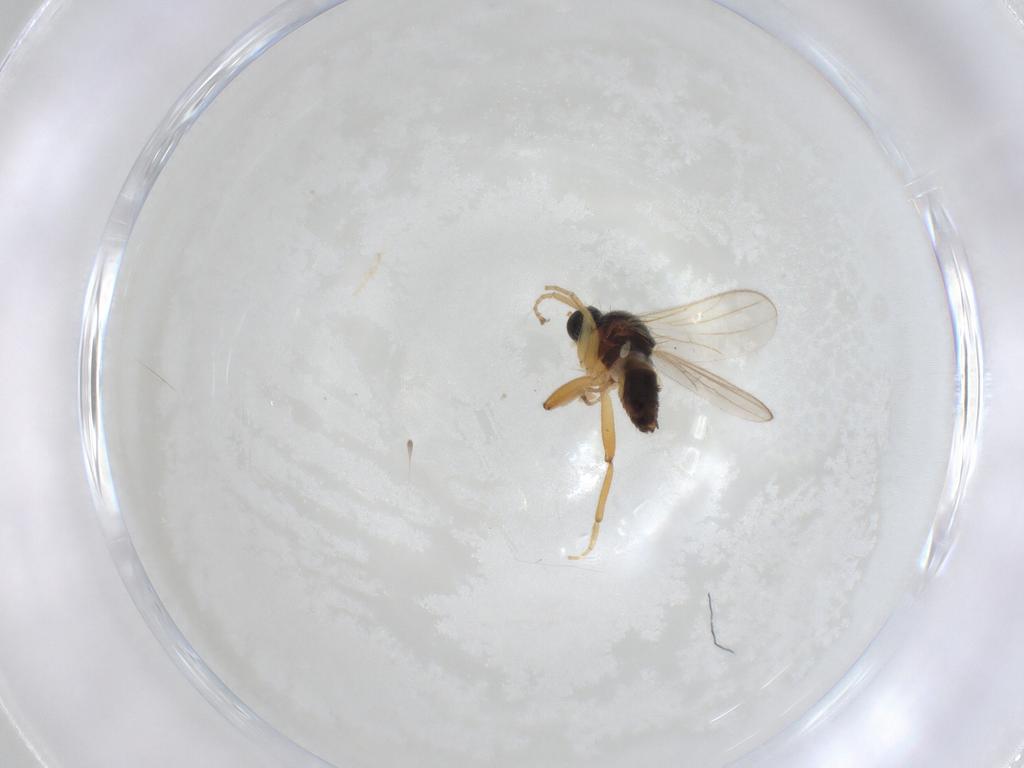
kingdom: Animalia
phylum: Arthropoda
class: Insecta
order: Diptera
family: Hybotidae
